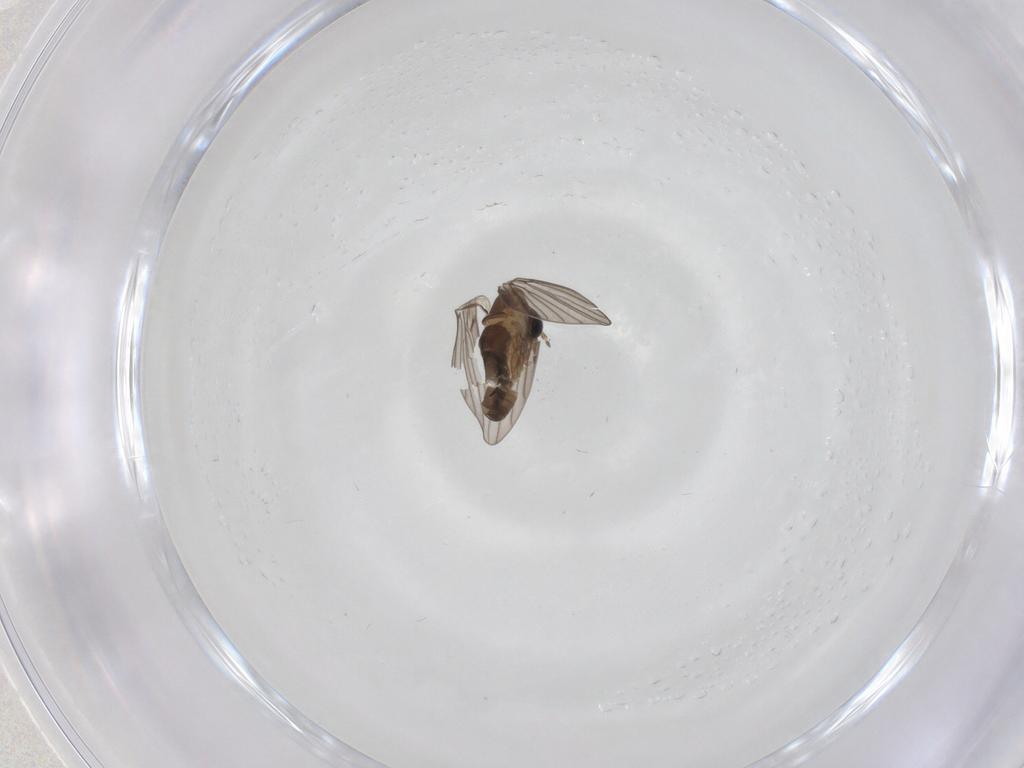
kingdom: Animalia
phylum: Arthropoda
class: Insecta
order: Diptera
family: Psychodidae
